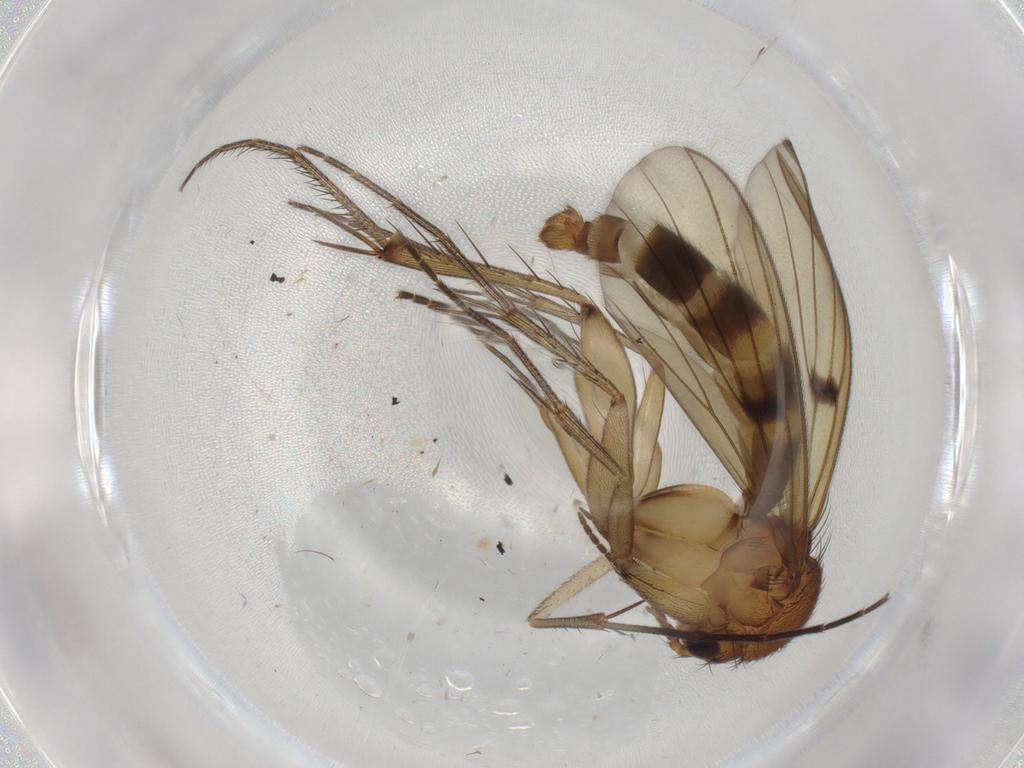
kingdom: Animalia
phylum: Arthropoda
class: Insecta
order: Diptera
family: Mycetophilidae
